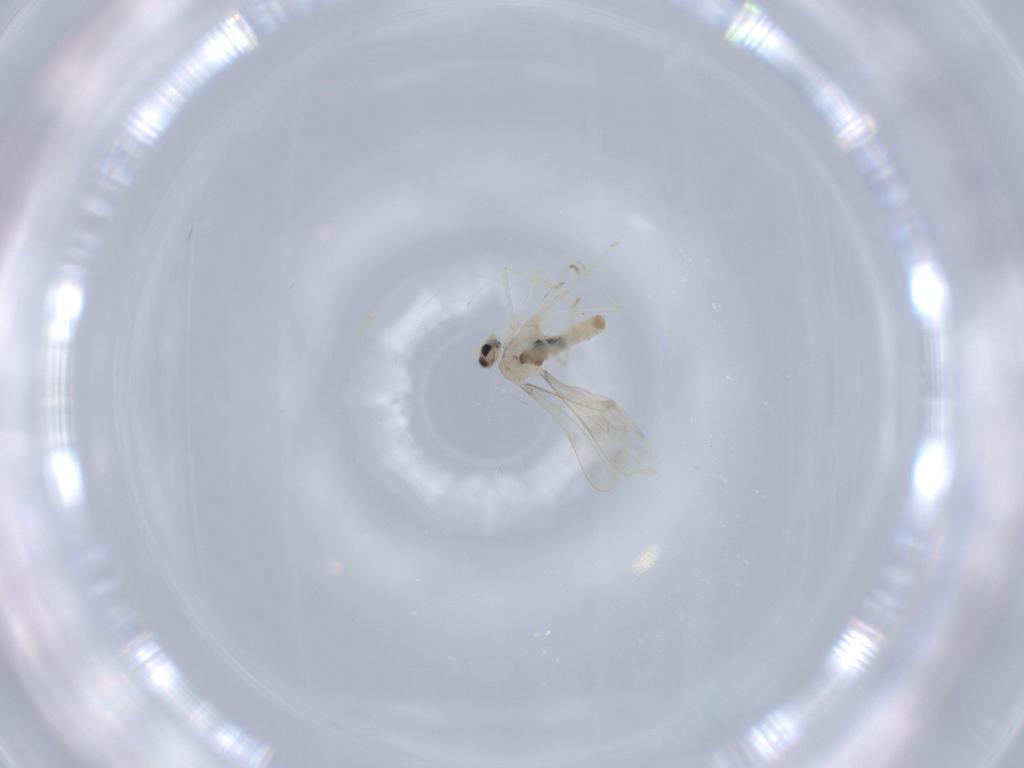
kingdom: Animalia
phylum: Arthropoda
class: Insecta
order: Diptera
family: Cecidomyiidae
